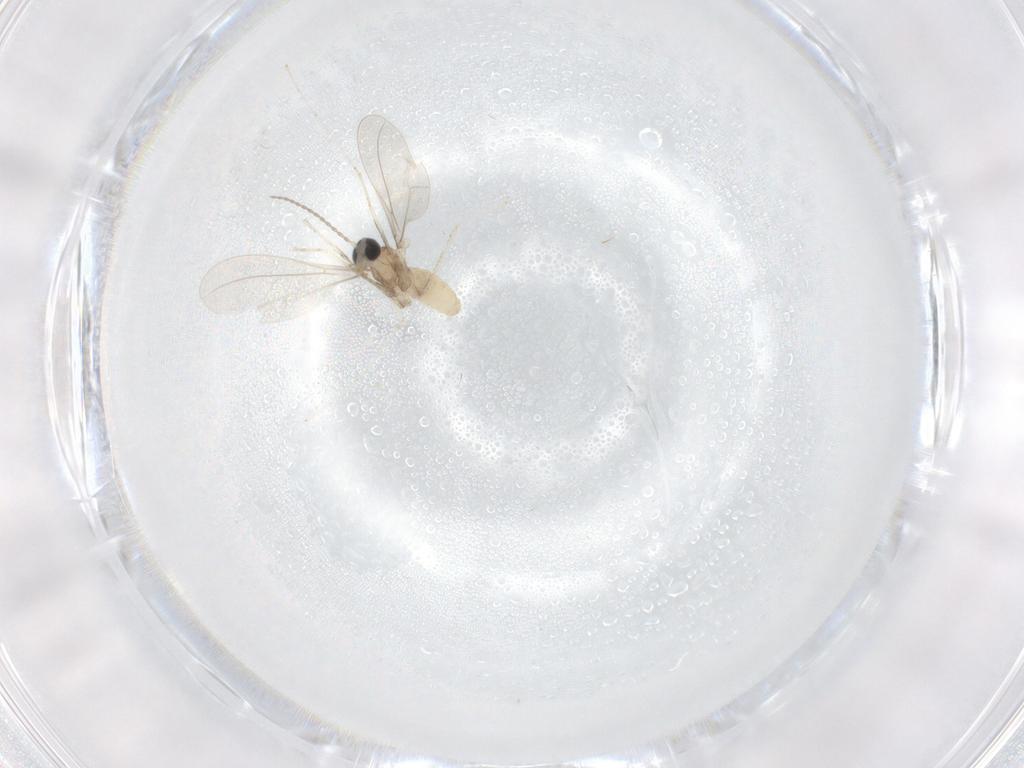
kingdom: Animalia
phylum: Arthropoda
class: Insecta
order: Diptera
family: Cecidomyiidae
